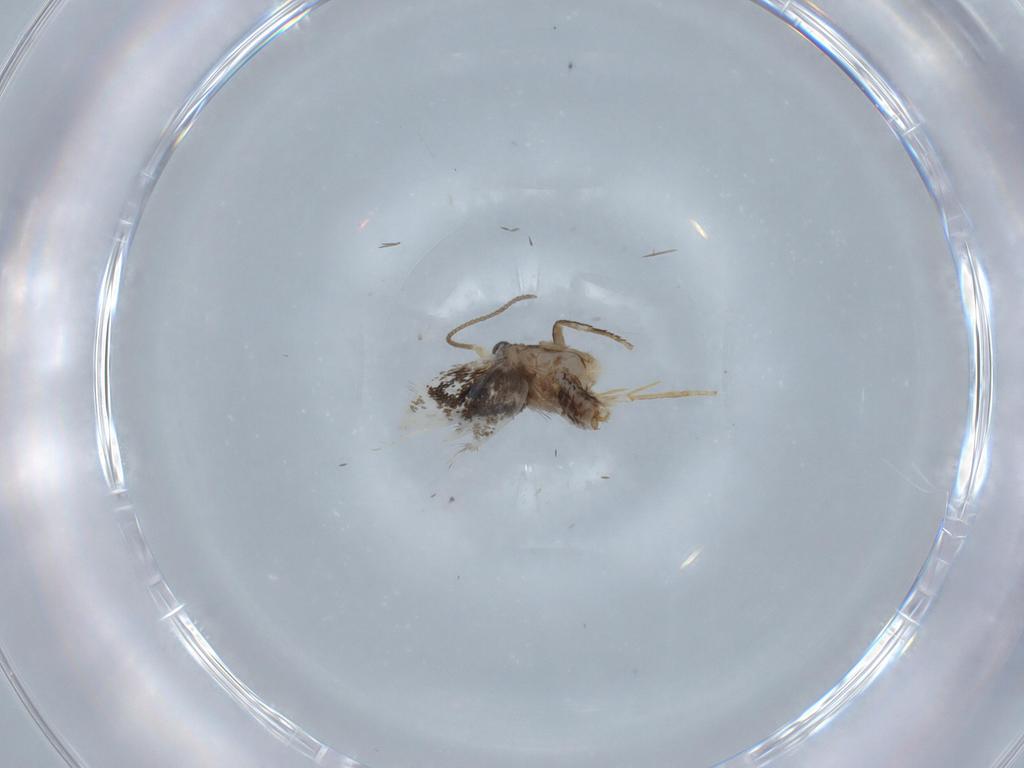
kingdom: Animalia
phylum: Arthropoda
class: Insecta
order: Lepidoptera
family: Nepticulidae
